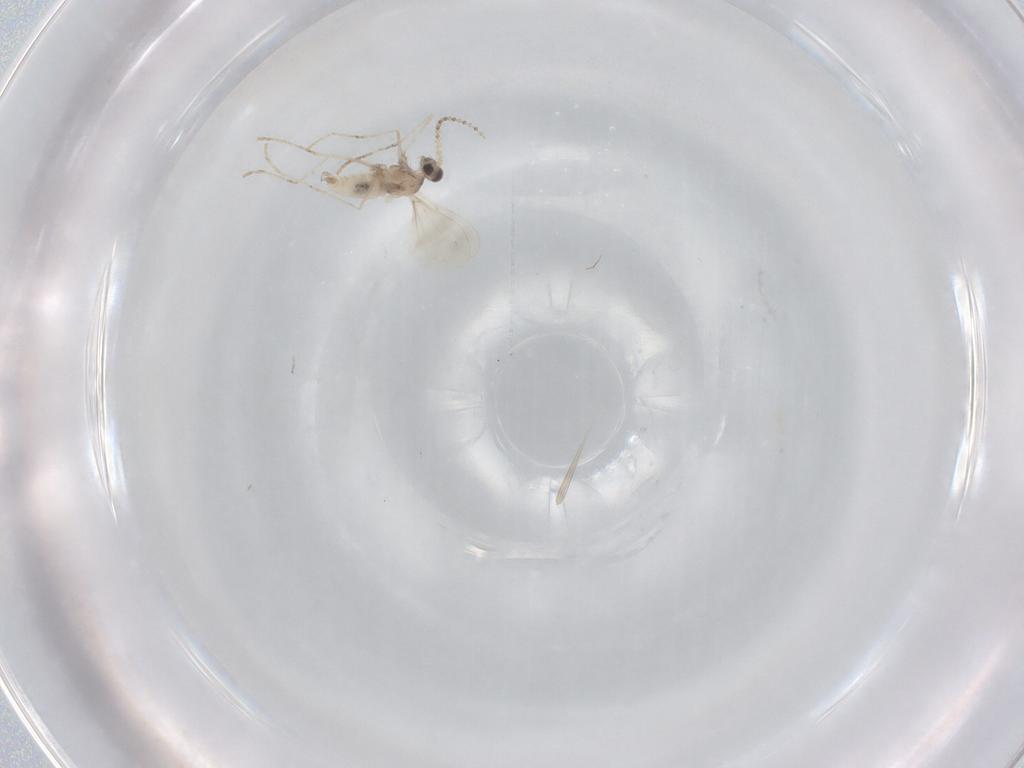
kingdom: Animalia
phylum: Arthropoda
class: Insecta
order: Diptera
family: Cecidomyiidae
